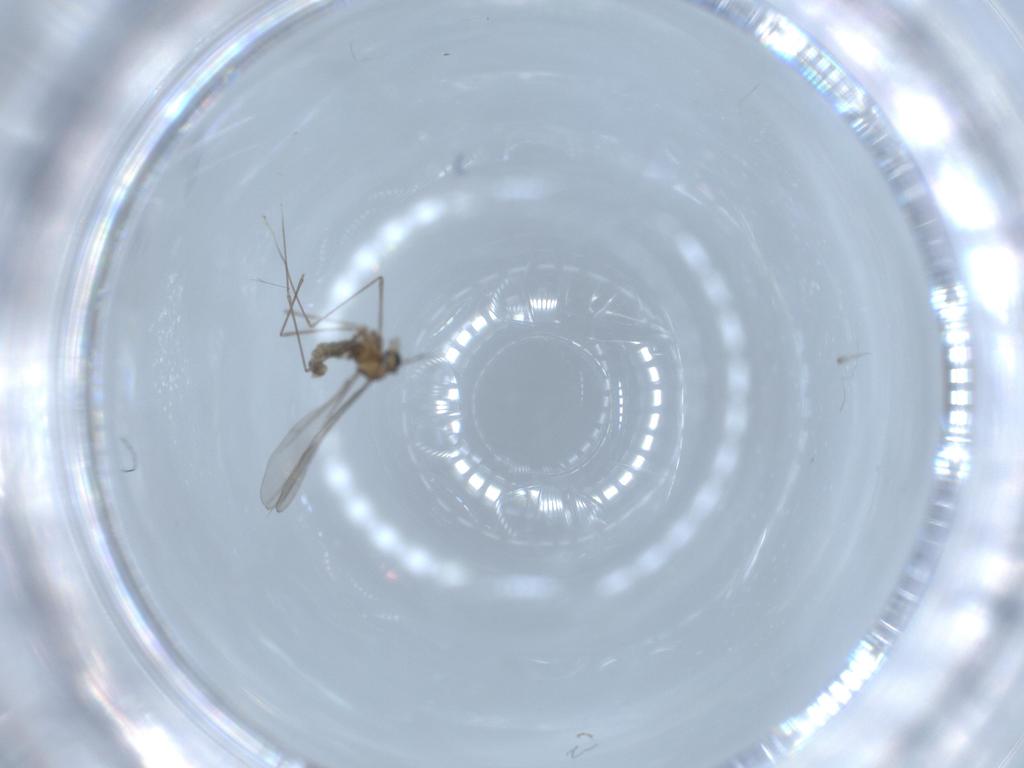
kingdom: Animalia
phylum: Arthropoda
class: Insecta
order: Diptera
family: Cecidomyiidae
